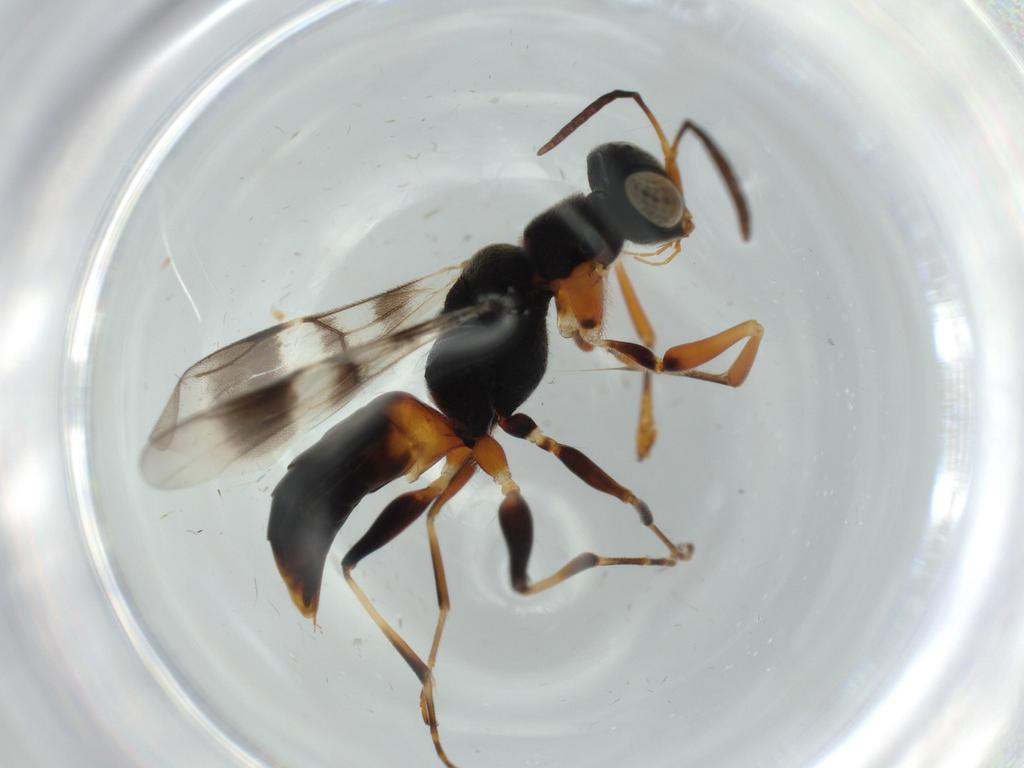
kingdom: Animalia
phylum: Arthropoda
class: Insecta
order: Hymenoptera
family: Dryinidae
